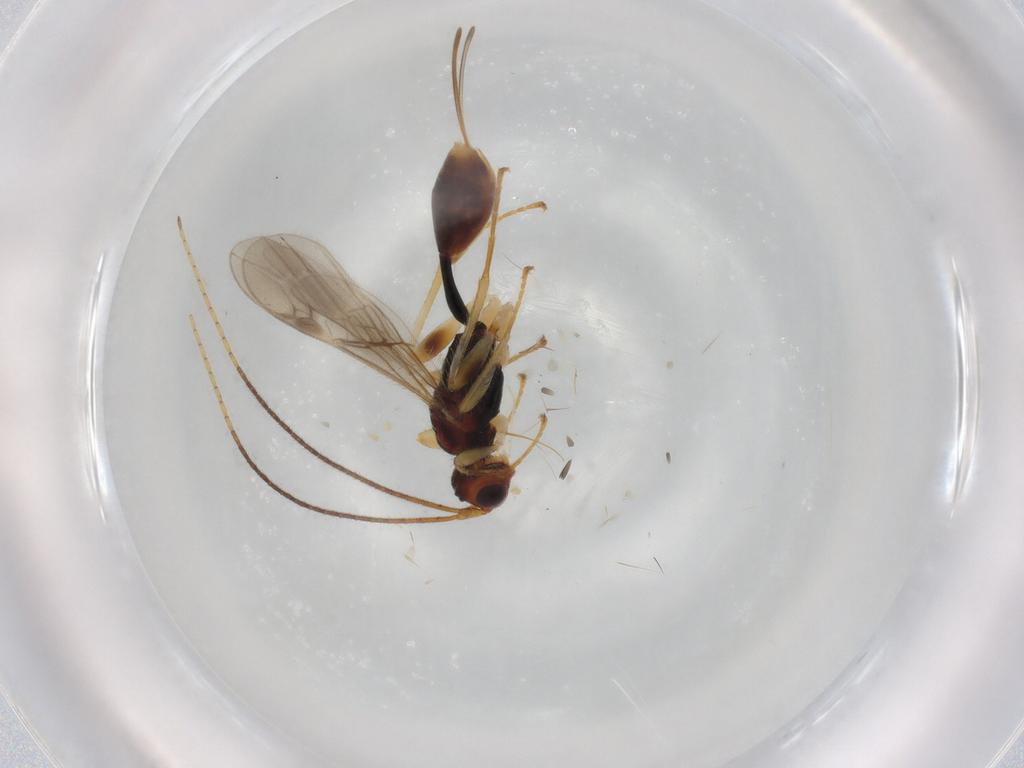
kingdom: Animalia
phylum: Arthropoda
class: Insecta
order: Hymenoptera
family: Braconidae
